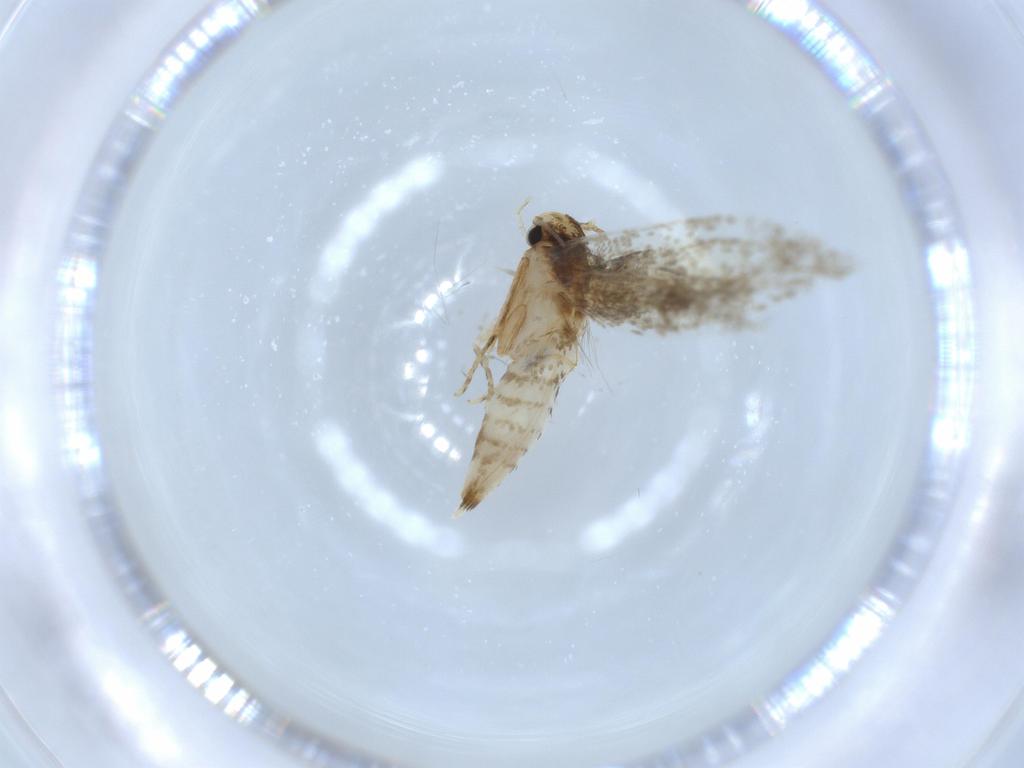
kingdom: Animalia
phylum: Arthropoda
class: Insecta
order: Lepidoptera
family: Tineidae
